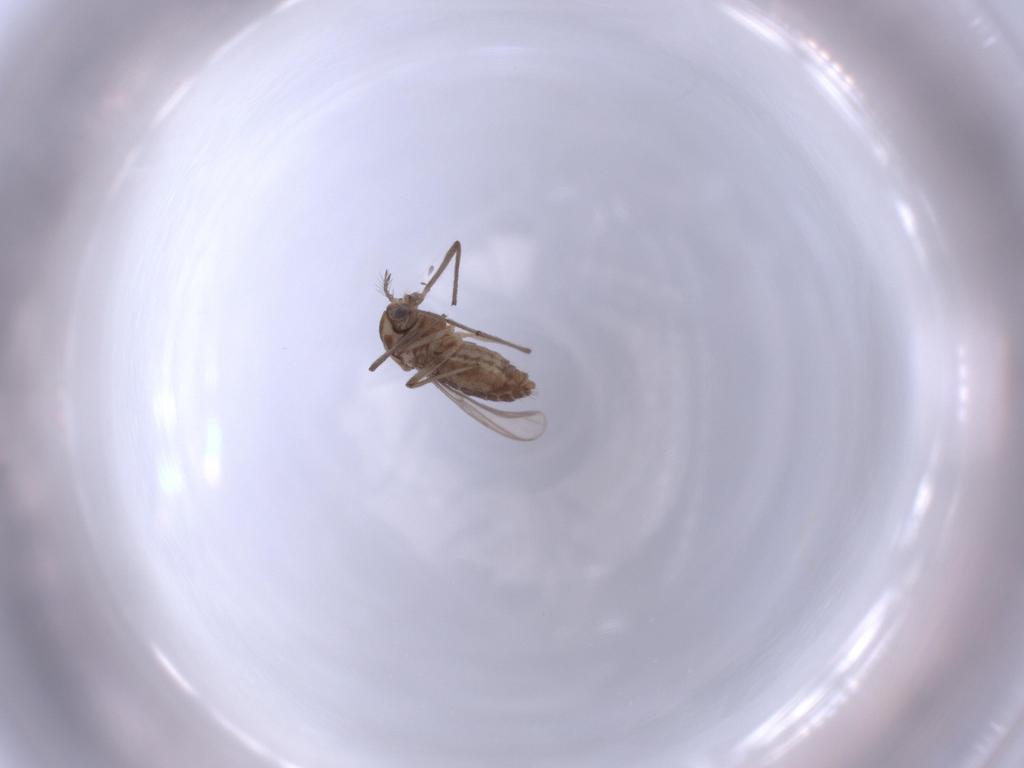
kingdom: Animalia
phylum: Arthropoda
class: Insecta
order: Diptera
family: Chironomidae
